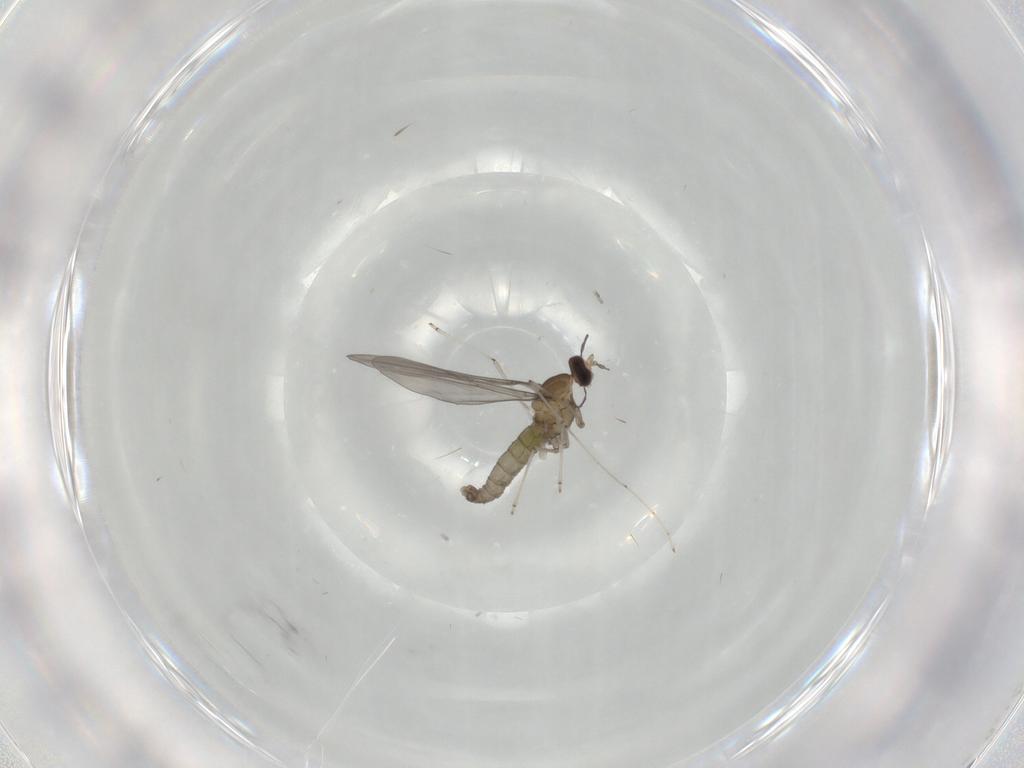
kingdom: Animalia
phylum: Arthropoda
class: Insecta
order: Diptera
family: Cecidomyiidae
